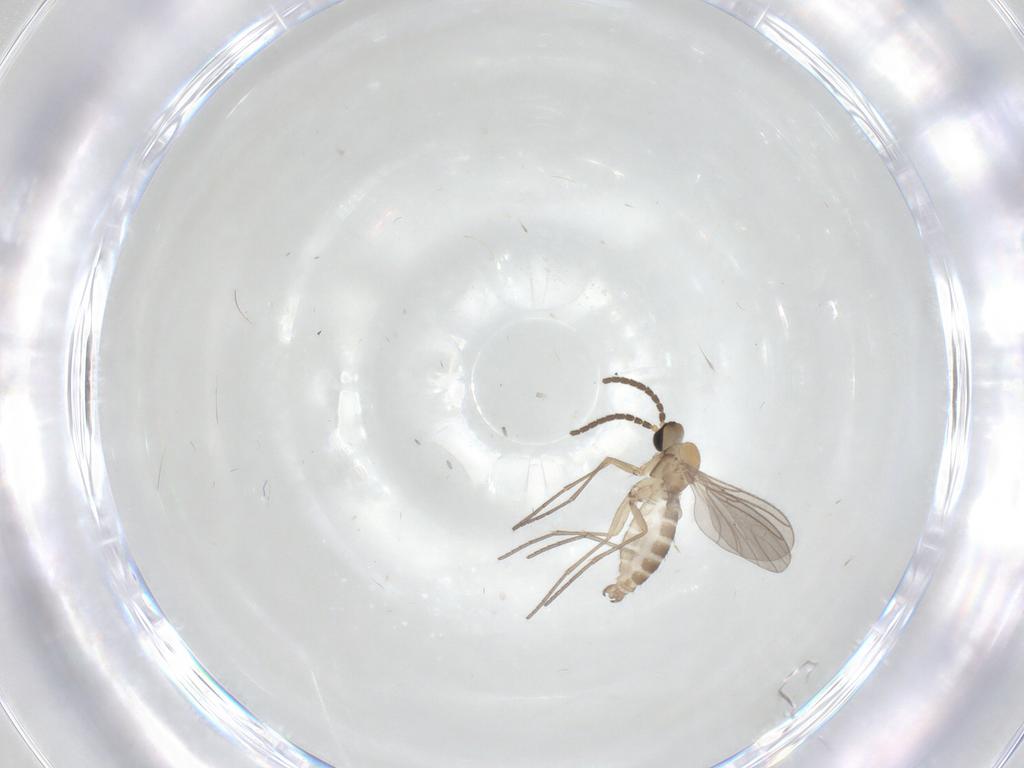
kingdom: Animalia
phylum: Arthropoda
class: Insecta
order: Diptera
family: Sciaridae
